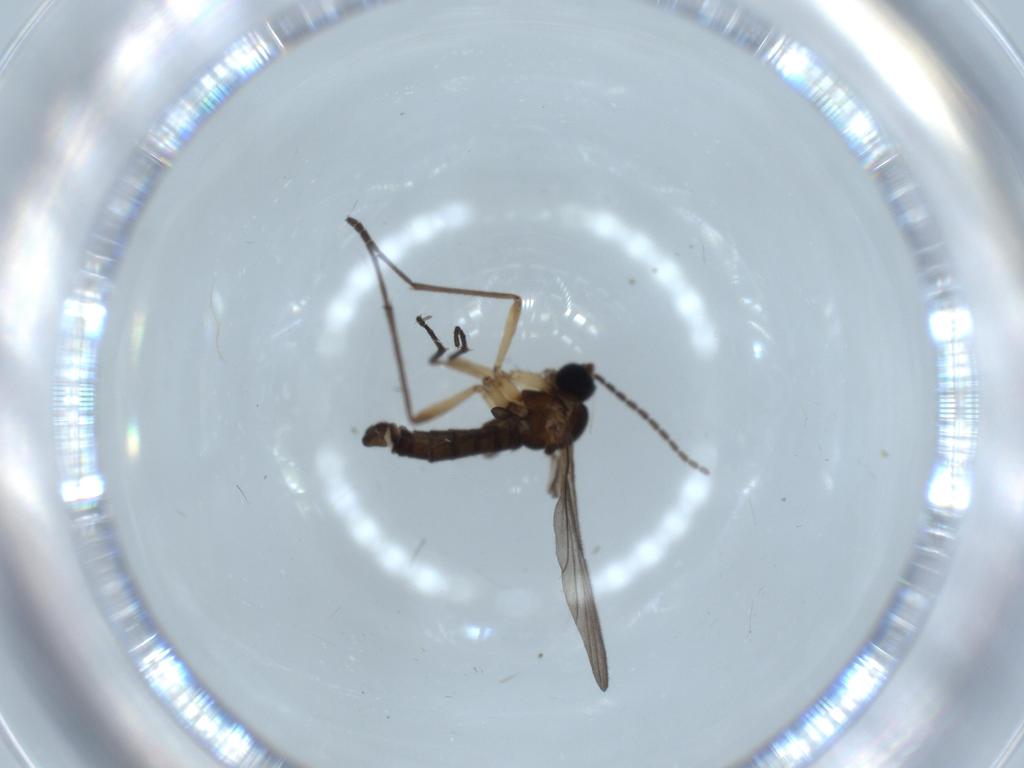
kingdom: Animalia
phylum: Arthropoda
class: Insecta
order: Diptera
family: Sciaridae
